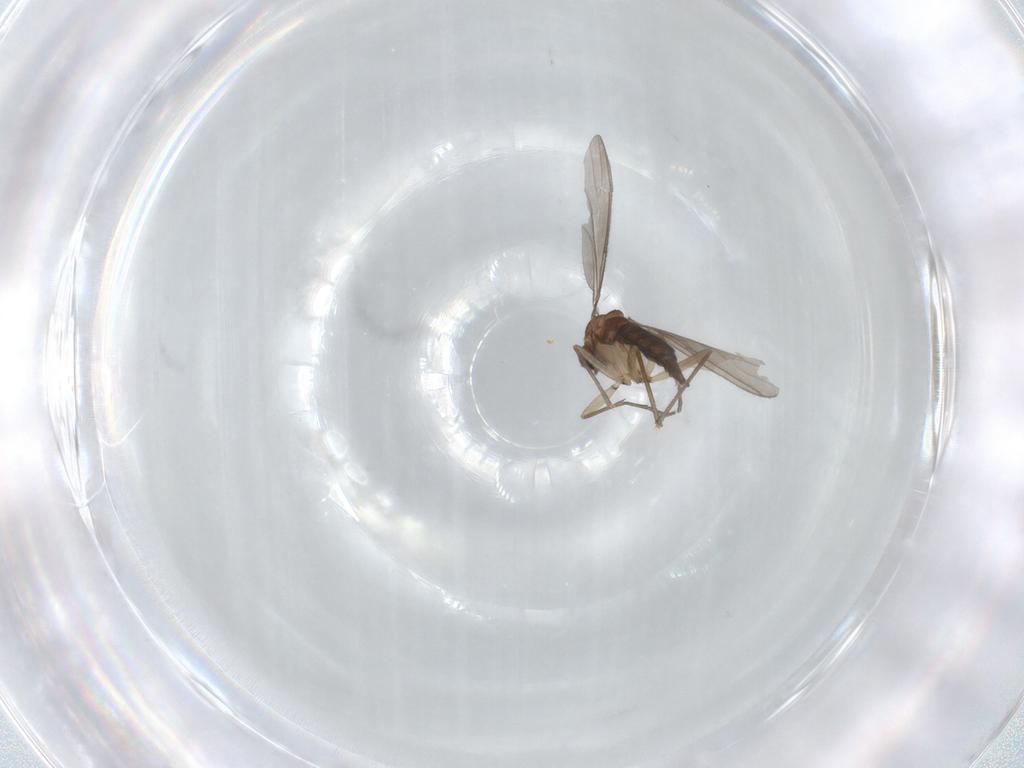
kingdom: Animalia
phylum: Arthropoda
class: Insecta
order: Diptera
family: Sciaridae
